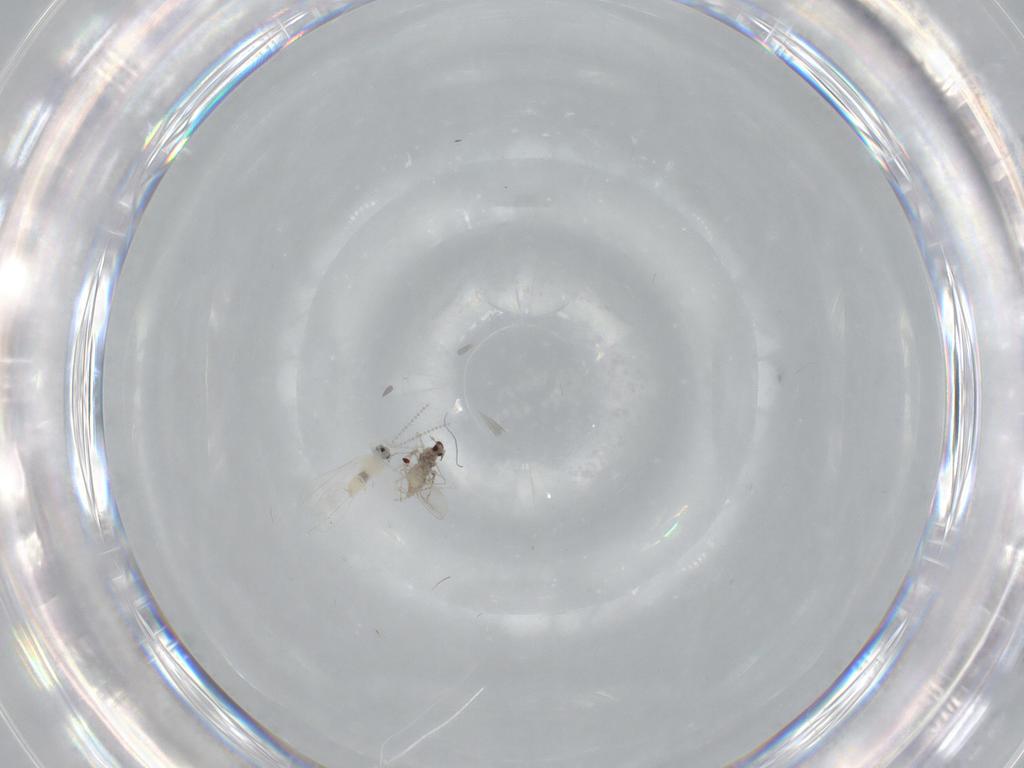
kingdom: Animalia
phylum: Arthropoda
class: Insecta
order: Diptera
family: Cecidomyiidae
